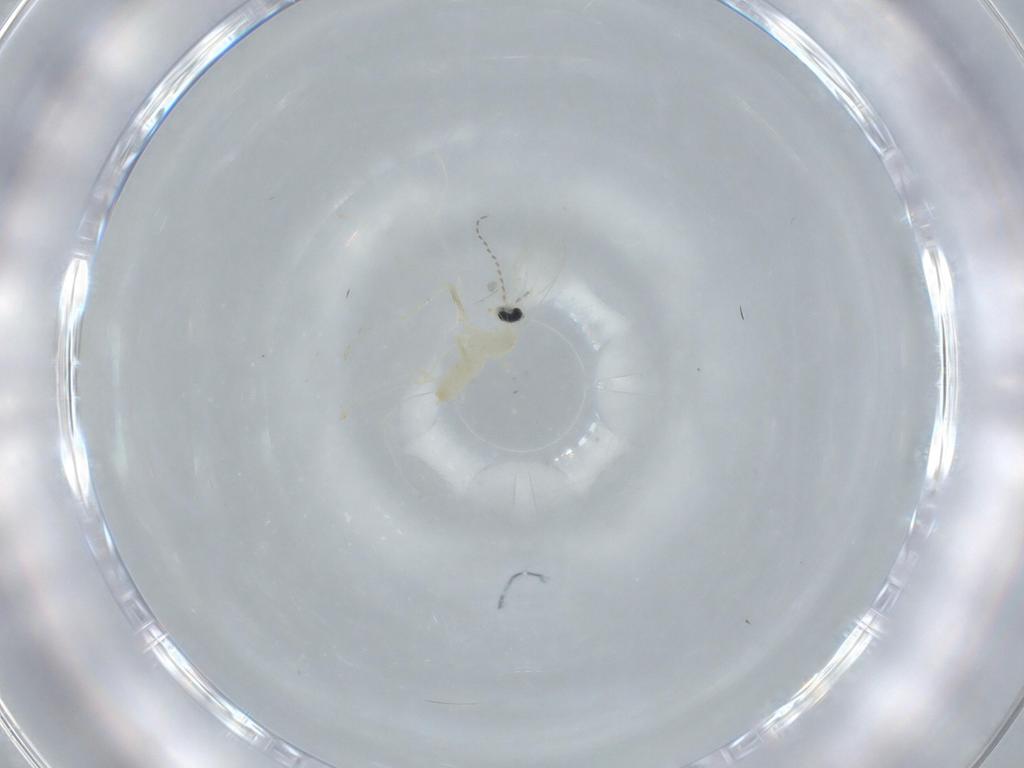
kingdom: Animalia
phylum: Arthropoda
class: Insecta
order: Diptera
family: Cecidomyiidae
